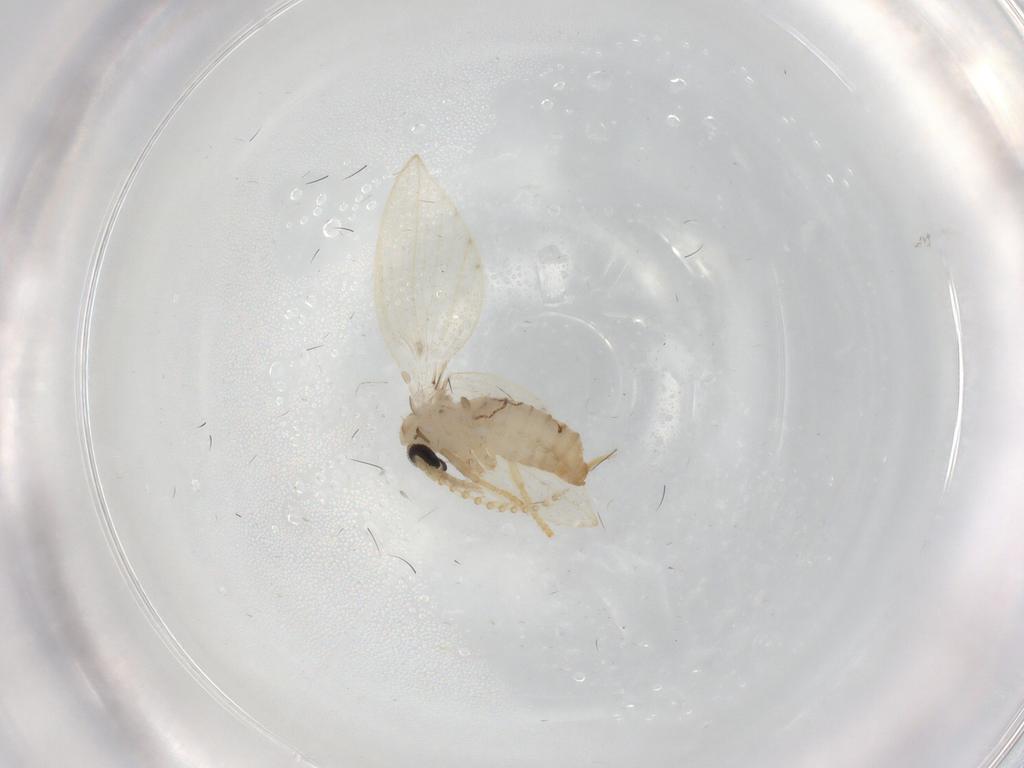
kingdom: Animalia
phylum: Arthropoda
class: Insecta
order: Diptera
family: Psychodidae
